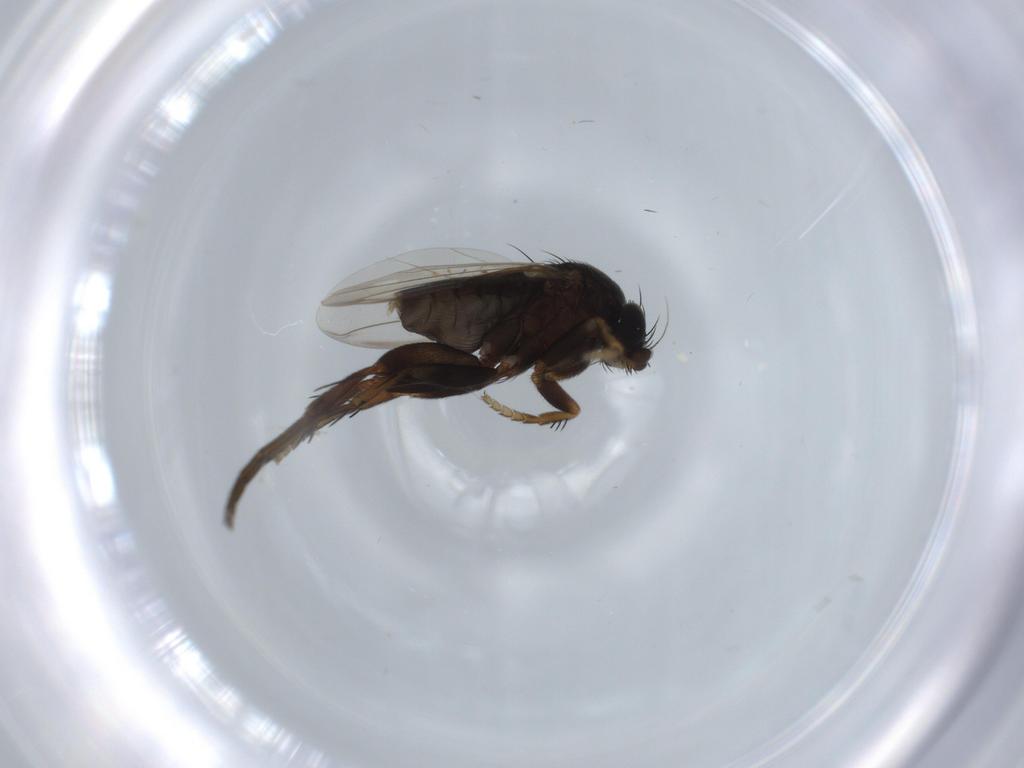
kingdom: Animalia
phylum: Arthropoda
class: Insecta
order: Diptera
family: Phoridae
